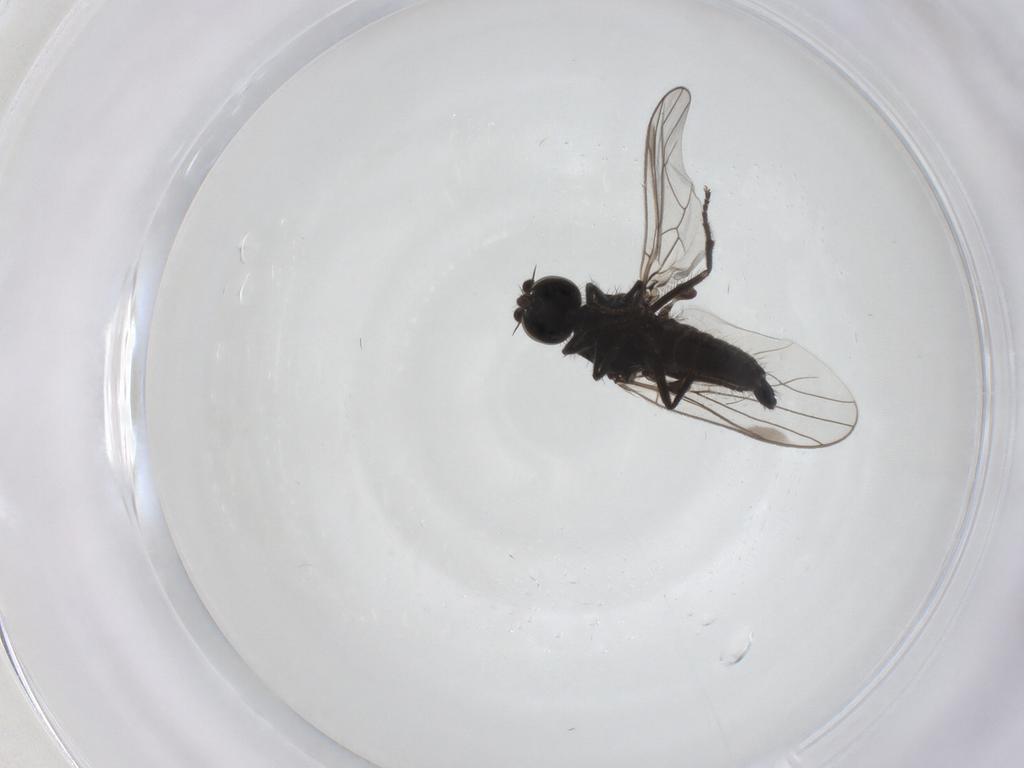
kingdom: Animalia
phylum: Arthropoda
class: Insecta
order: Diptera
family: Hybotidae
